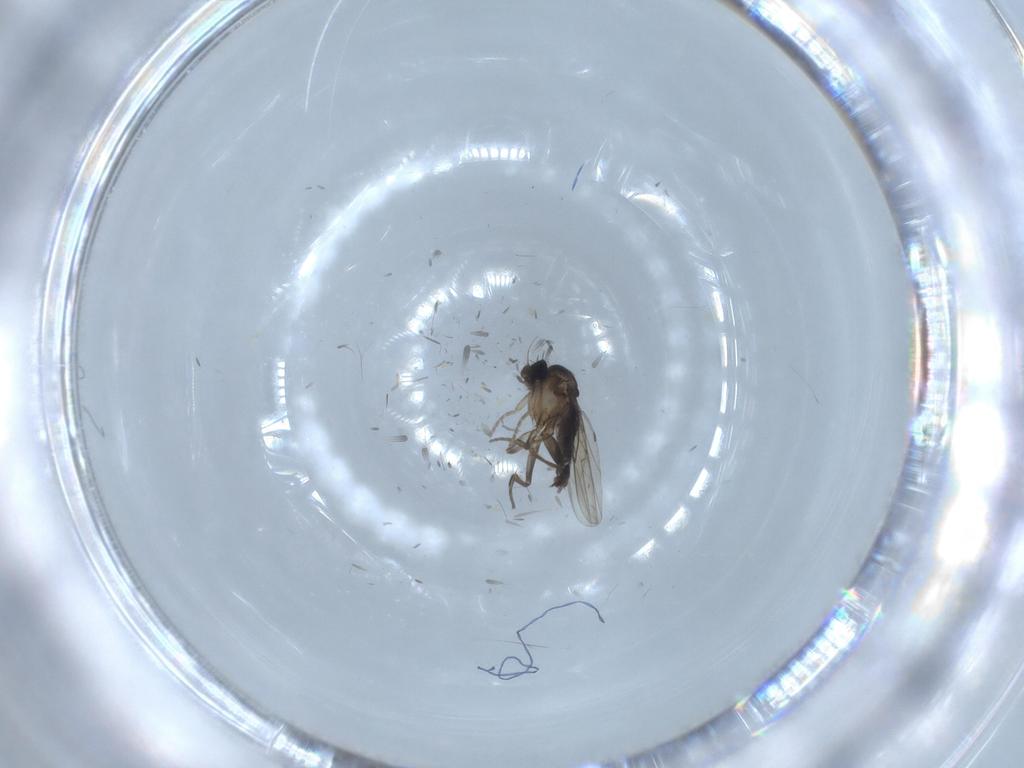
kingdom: Animalia
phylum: Arthropoda
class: Insecta
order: Diptera
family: Phoridae
